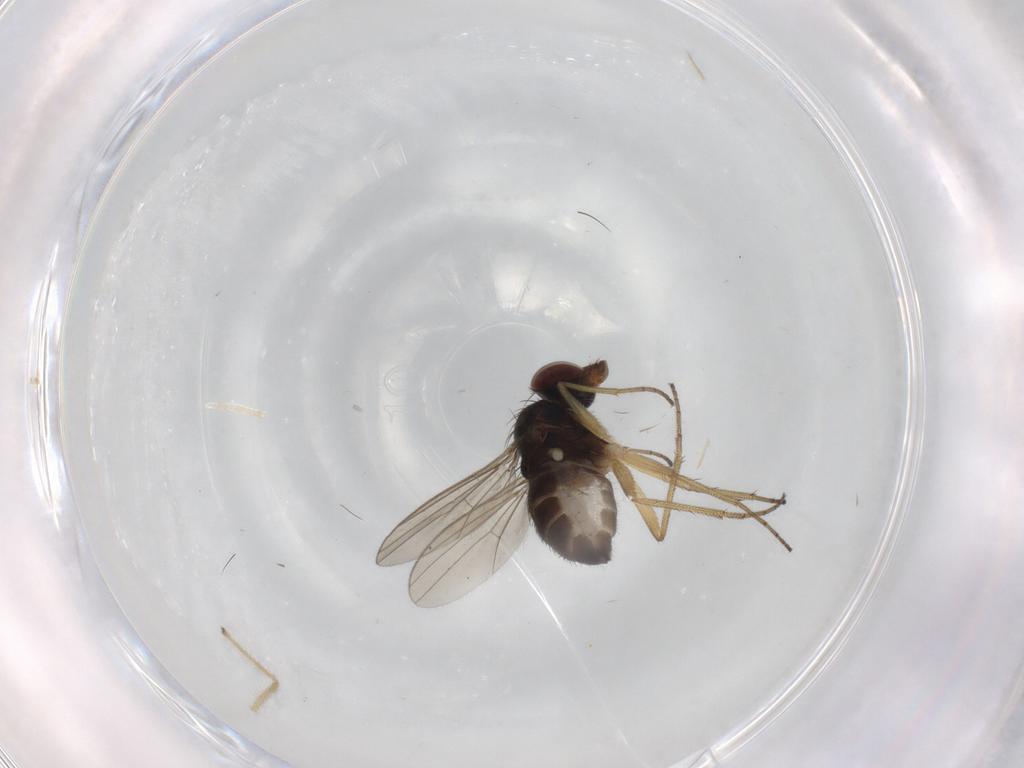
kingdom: Animalia
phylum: Arthropoda
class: Insecta
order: Diptera
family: Dolichopodidae
